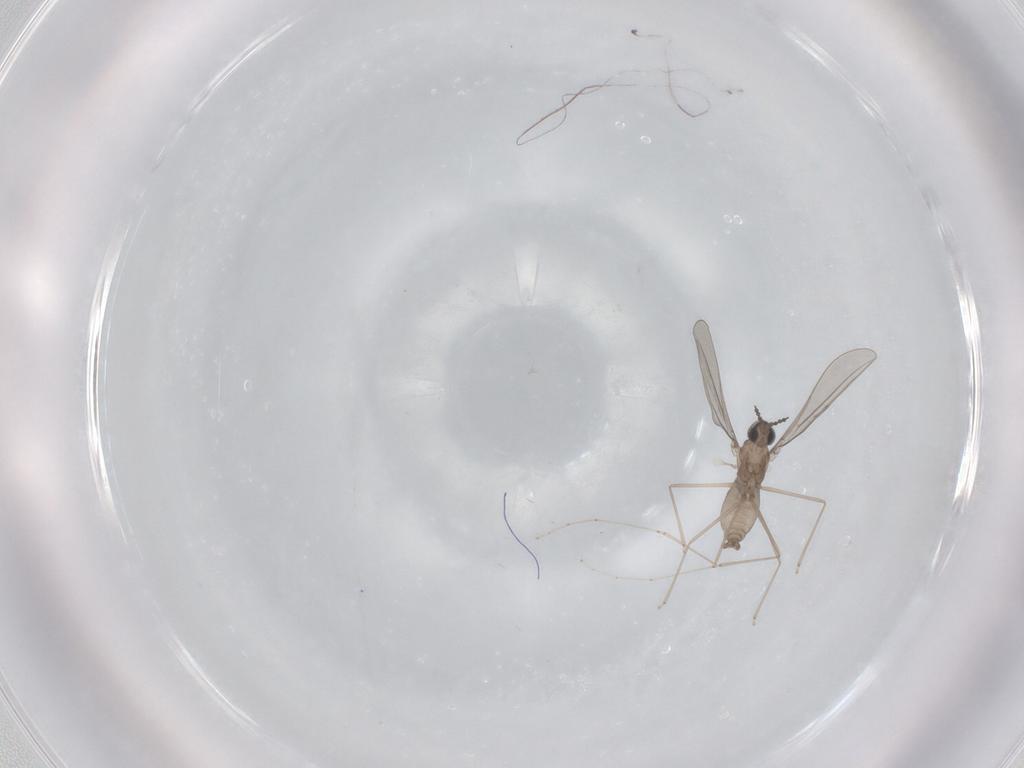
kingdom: Animalia
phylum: Arthropoda
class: Insecta
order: Diptera
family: Cecidomyiidae
